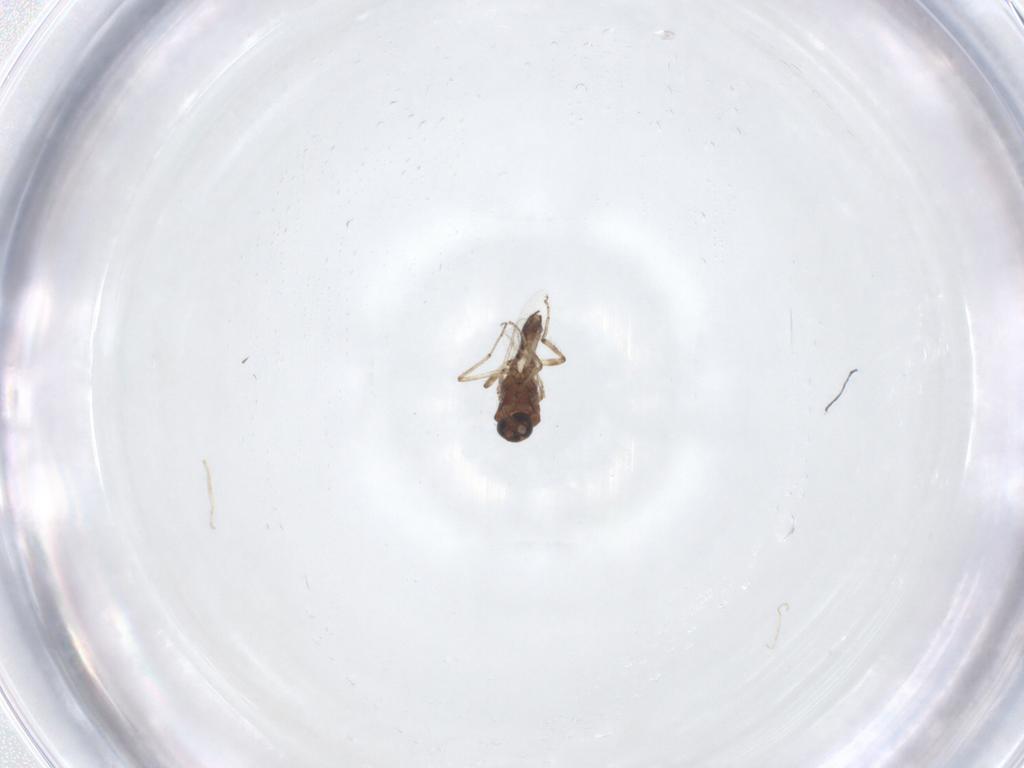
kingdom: Animalia
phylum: Arthropoda
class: Insecta
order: Diptera
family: Ceratopogonidae
